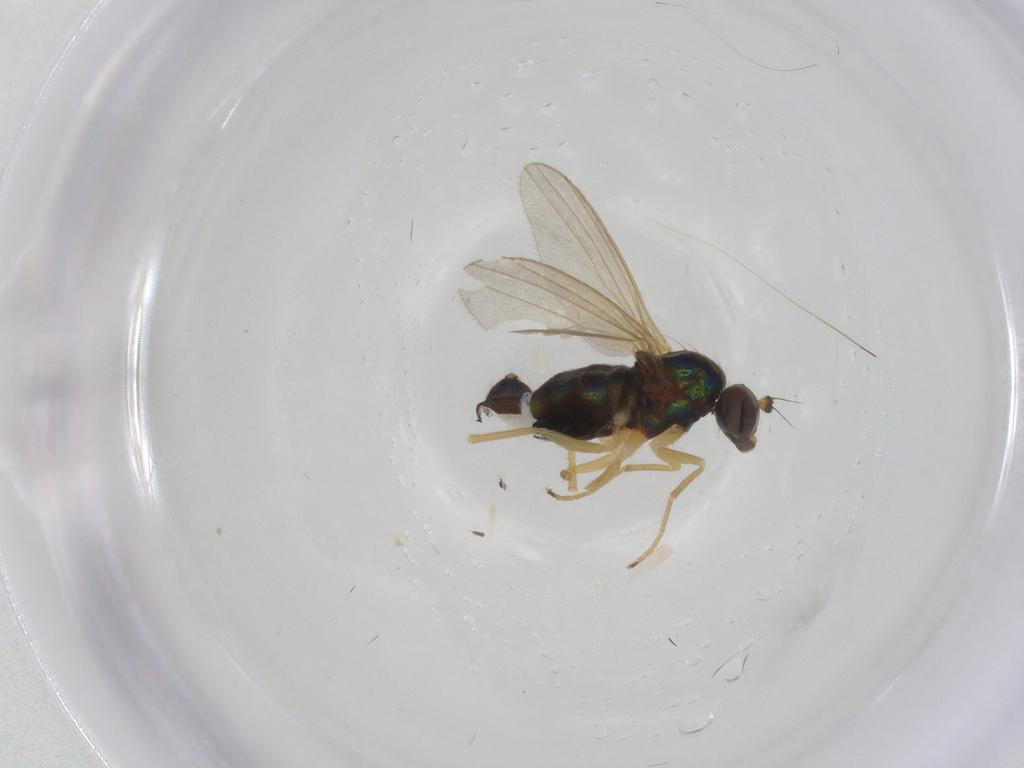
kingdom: Animalia
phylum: Arthropoda
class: Insecta
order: Diptera
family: Dolichopodidae
